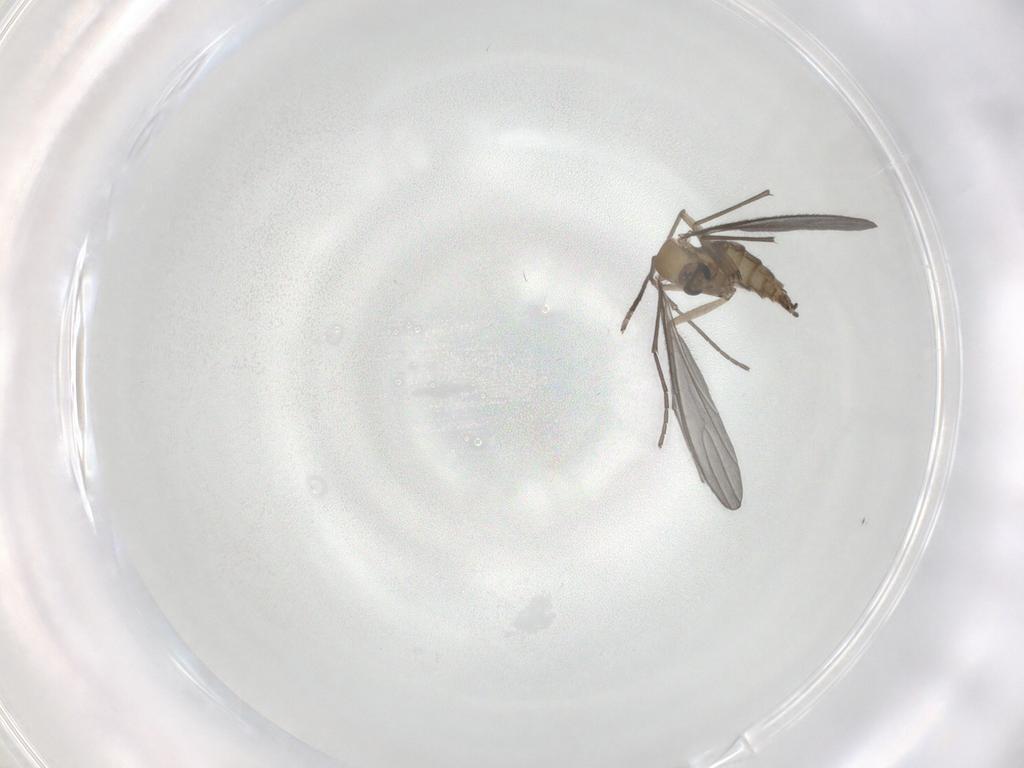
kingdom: Animalia
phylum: Arthropoda
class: Insecta
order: Diptera
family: Sciaridae
